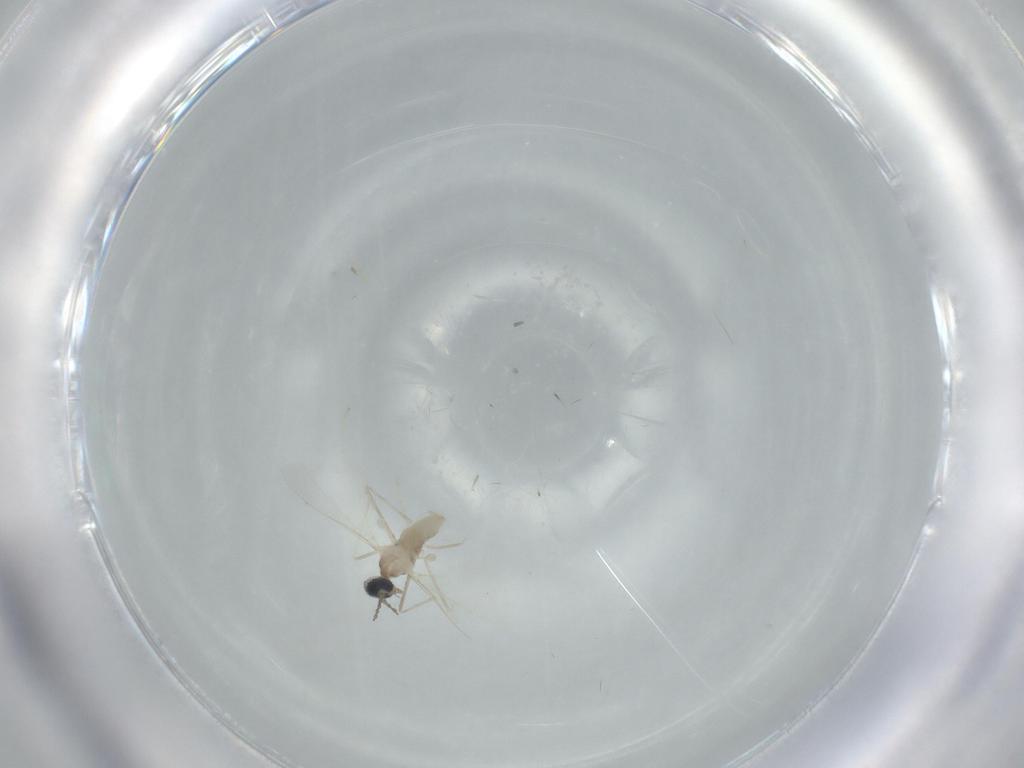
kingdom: Animalia
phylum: Arthropoda
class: Insecta
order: Diptera
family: Cecidomyiidae
